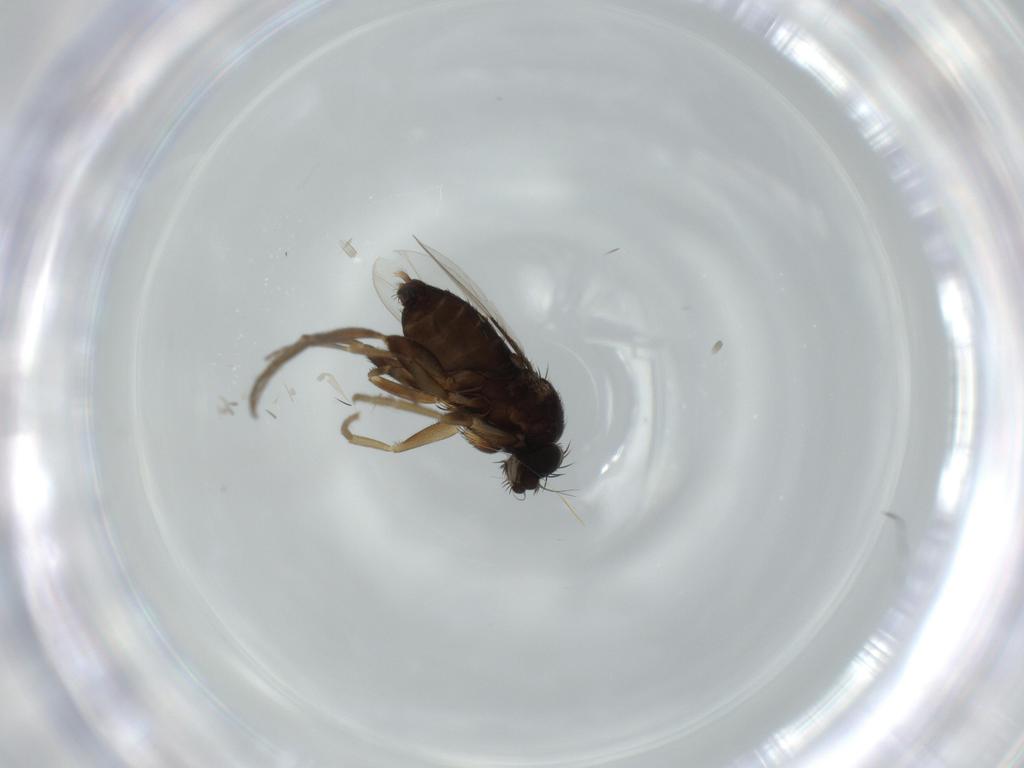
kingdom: Animalia
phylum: Arthropoda
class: Insecta
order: Diptera
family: Phoridae
